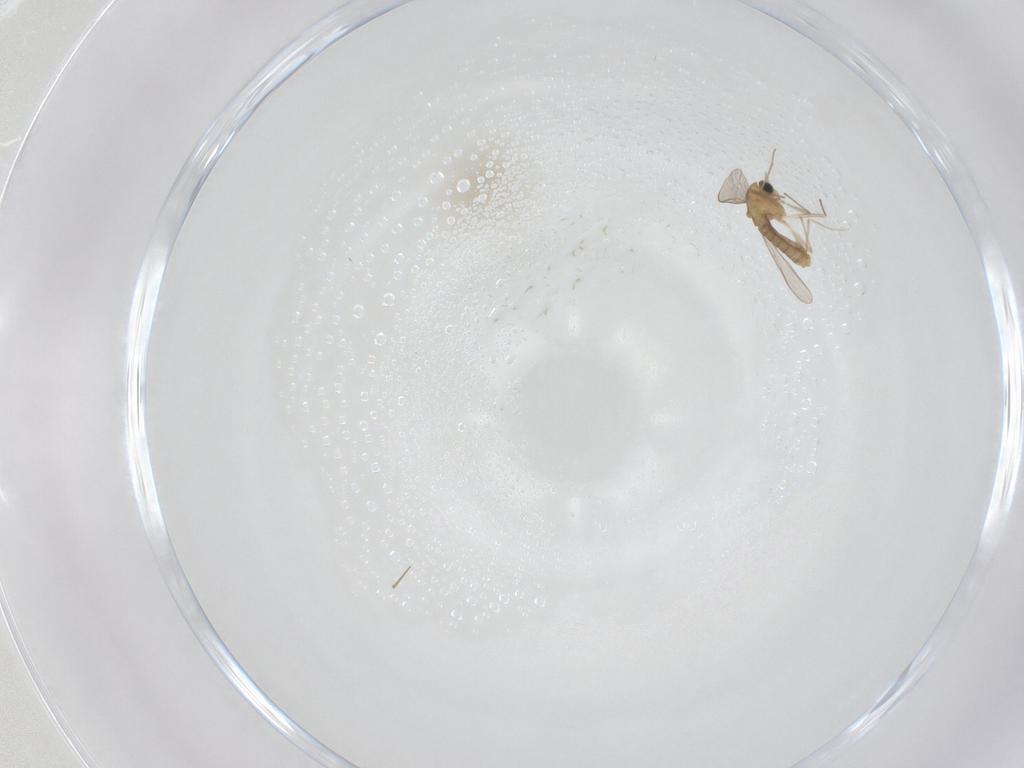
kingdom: Animalia
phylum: Arthropoda
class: Insecta
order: Diptera
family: Chironomidae
